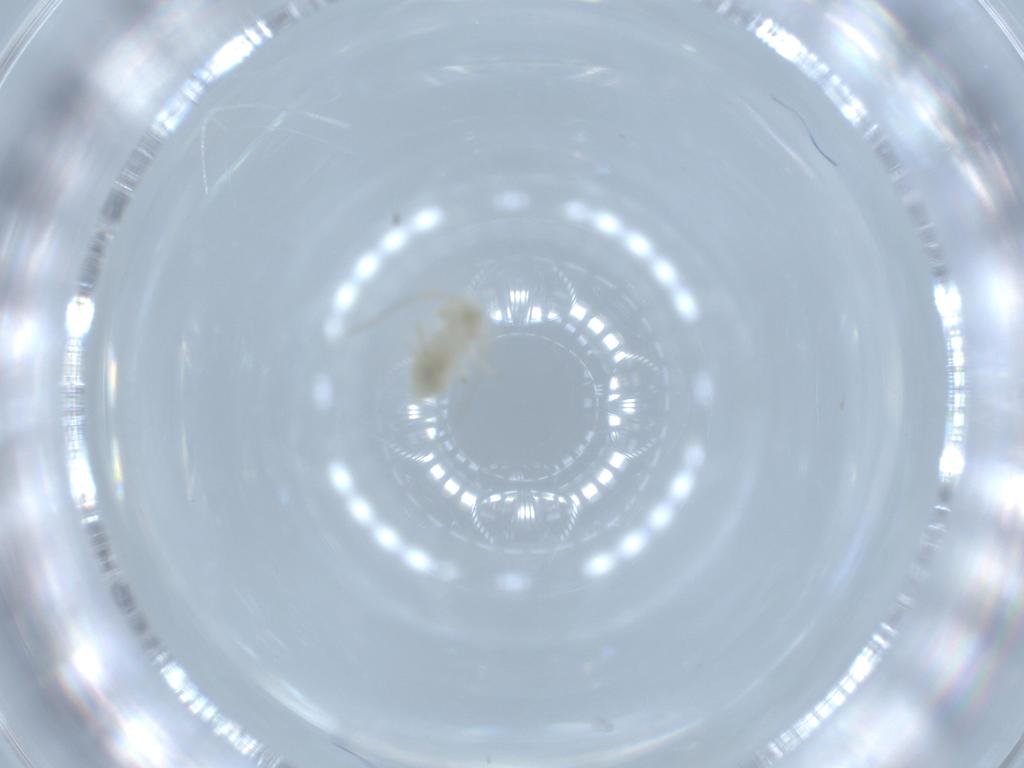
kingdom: Animalia
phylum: Arthropoda
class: Insecta
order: Psocodea
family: Caeciliusidae
